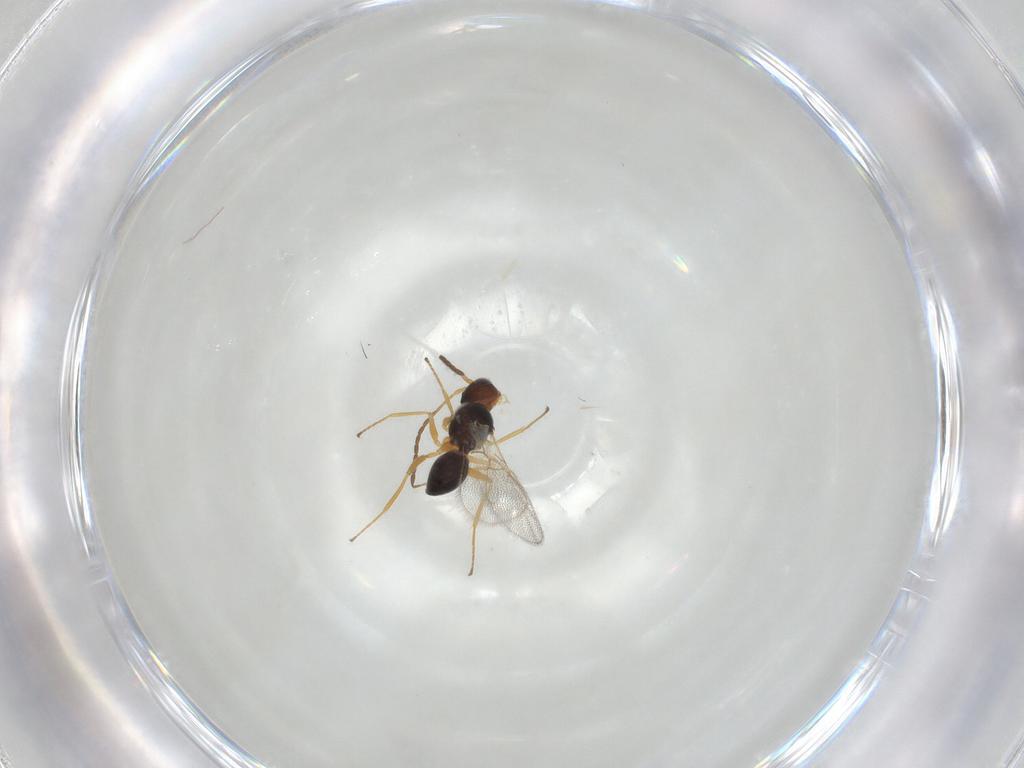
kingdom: Animalia
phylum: Arthropoda
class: Insecta
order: Hymenoptera
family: Figitidae
